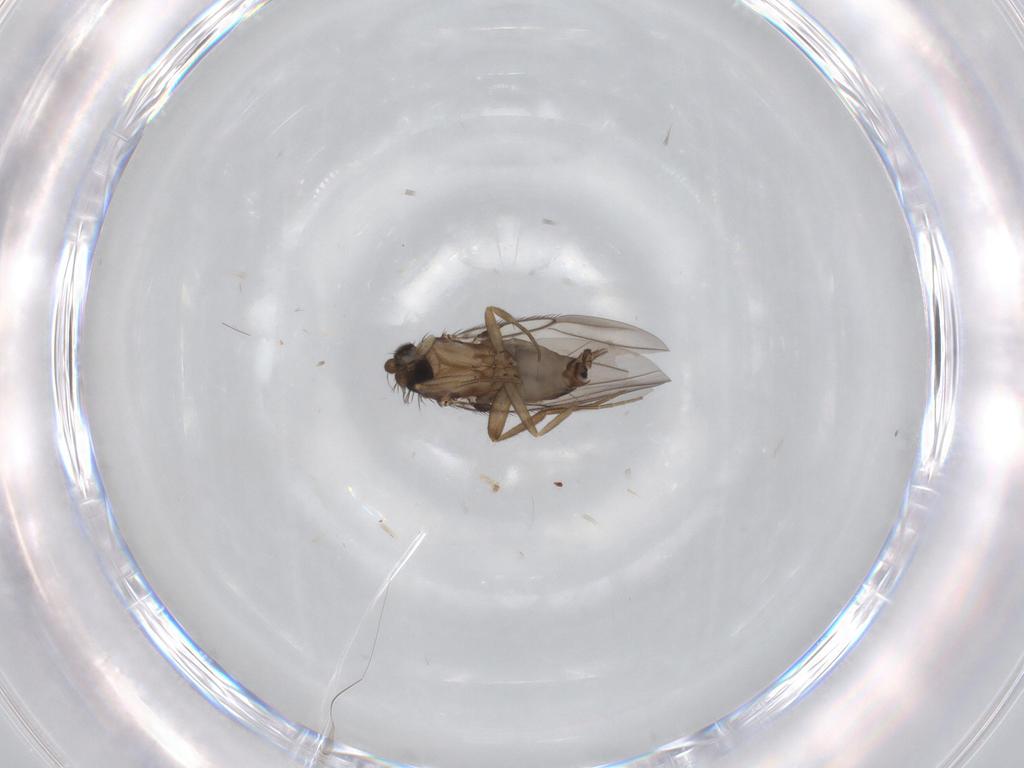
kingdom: Animalia
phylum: Arthropoda
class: Insecta
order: Diptera
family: Phoridae
